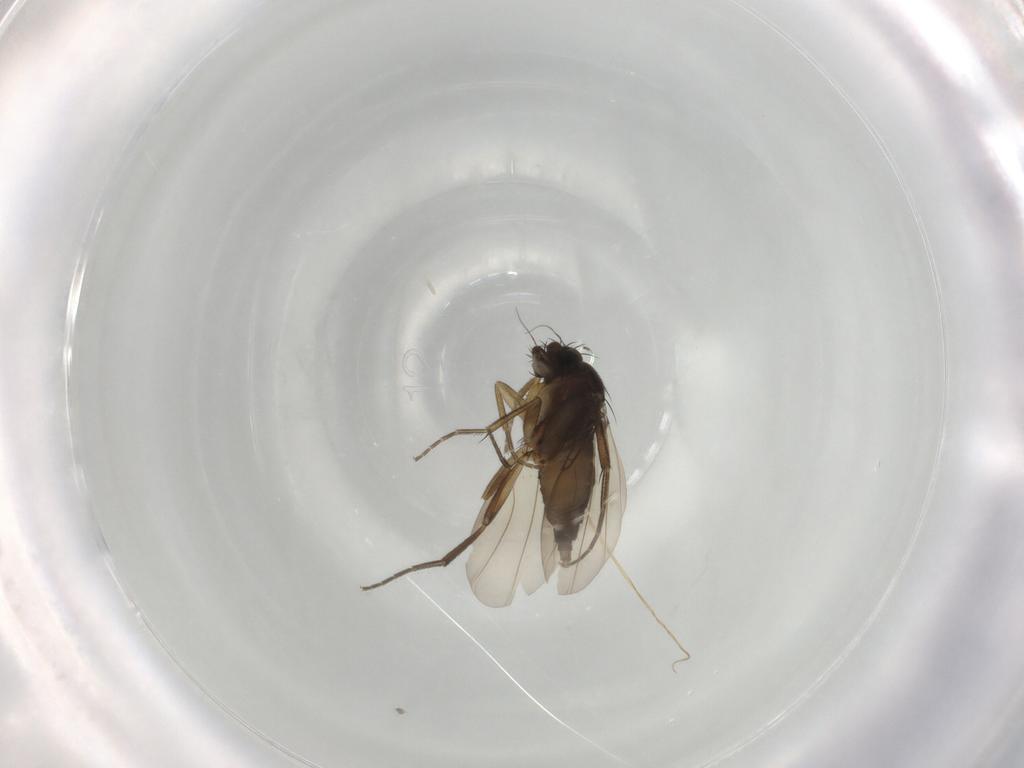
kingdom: Animalia
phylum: Arthropoda
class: Insecta
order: Diptera
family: Phoridae
